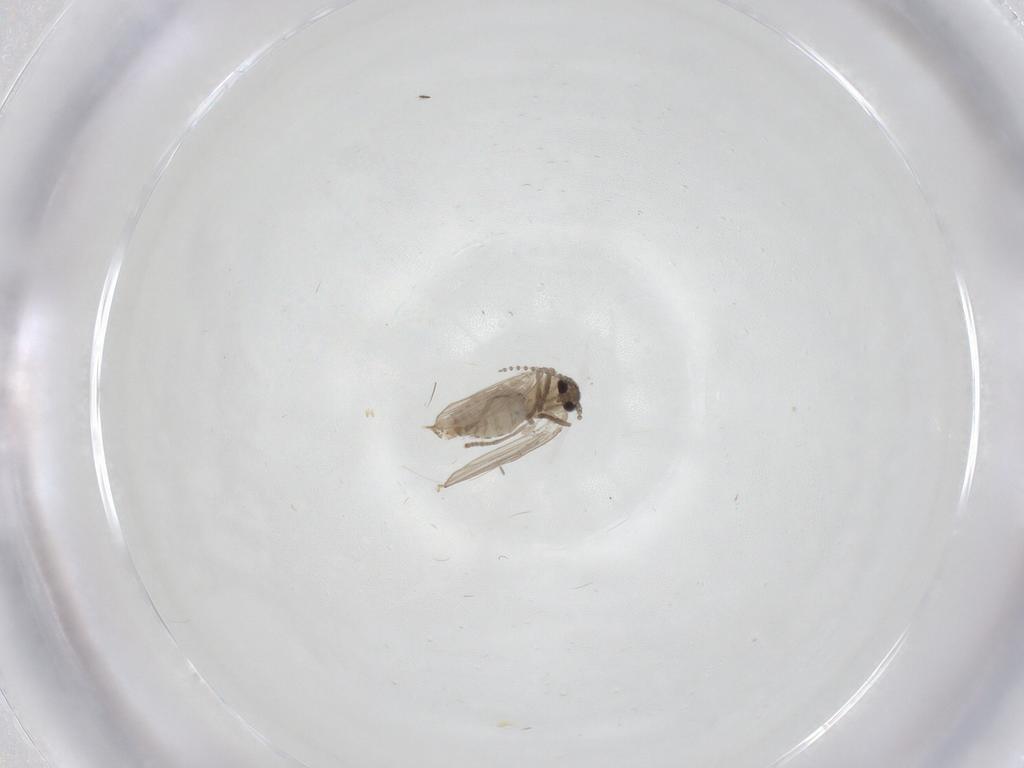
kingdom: Animalia
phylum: Arthropoda
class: Insecta
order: Diptera
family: Psychodidae
